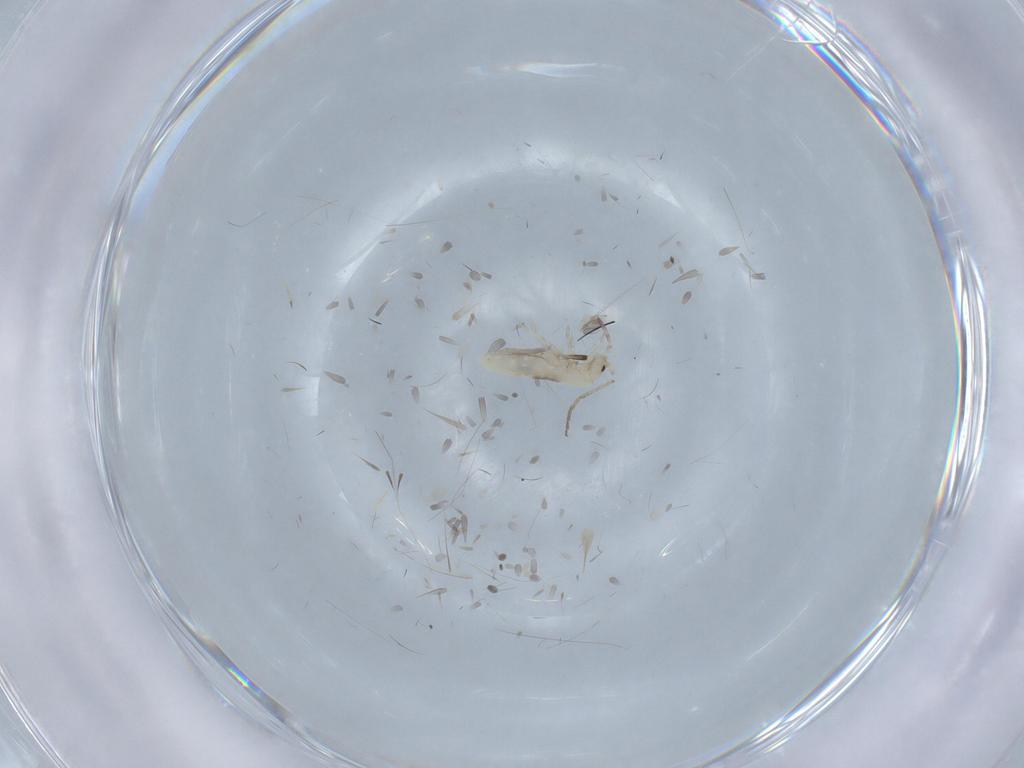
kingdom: Animalia
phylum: Arthropoda
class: Collembola
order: Entomobryomorpha
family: Entomobryidae
